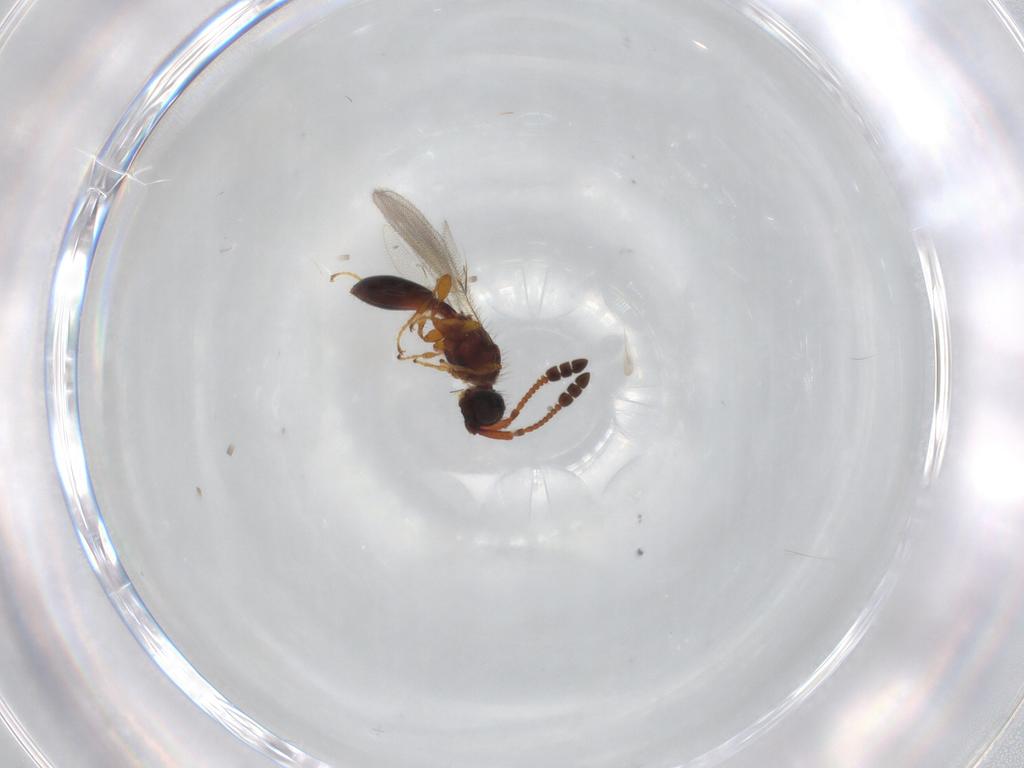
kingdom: Animalia
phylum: Arthropoda
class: Insecta
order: Hymenoptera
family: Diapriidae
